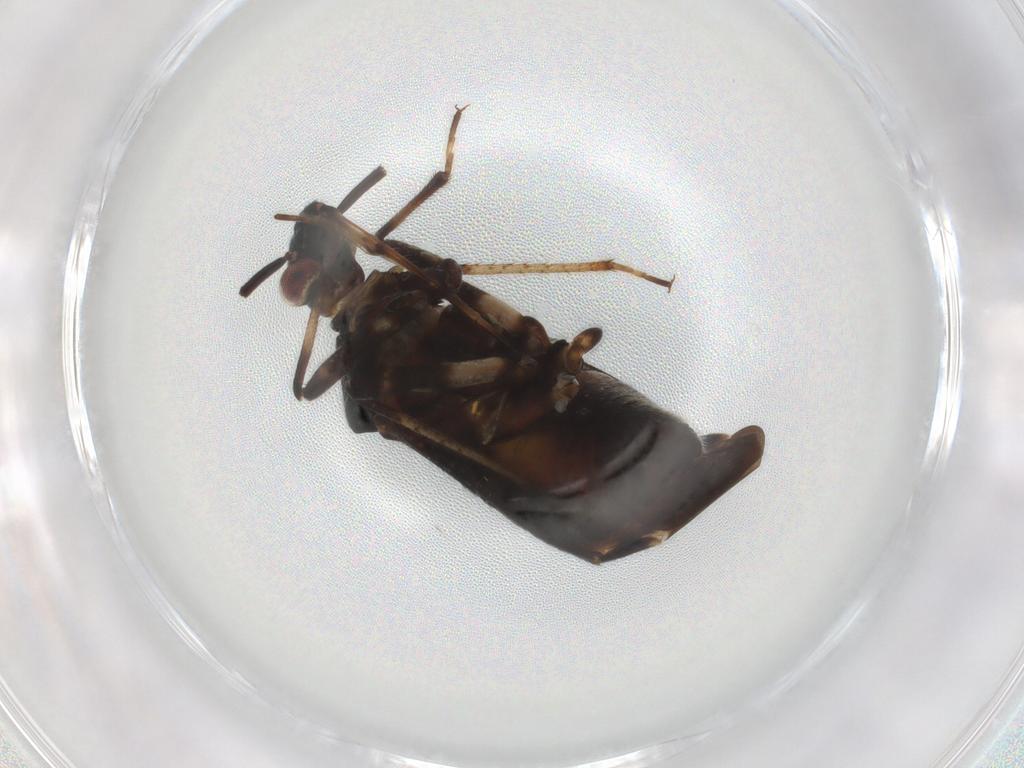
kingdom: Animalia
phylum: Arthropoda
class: Insecta
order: Hemiptera
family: Miridae
